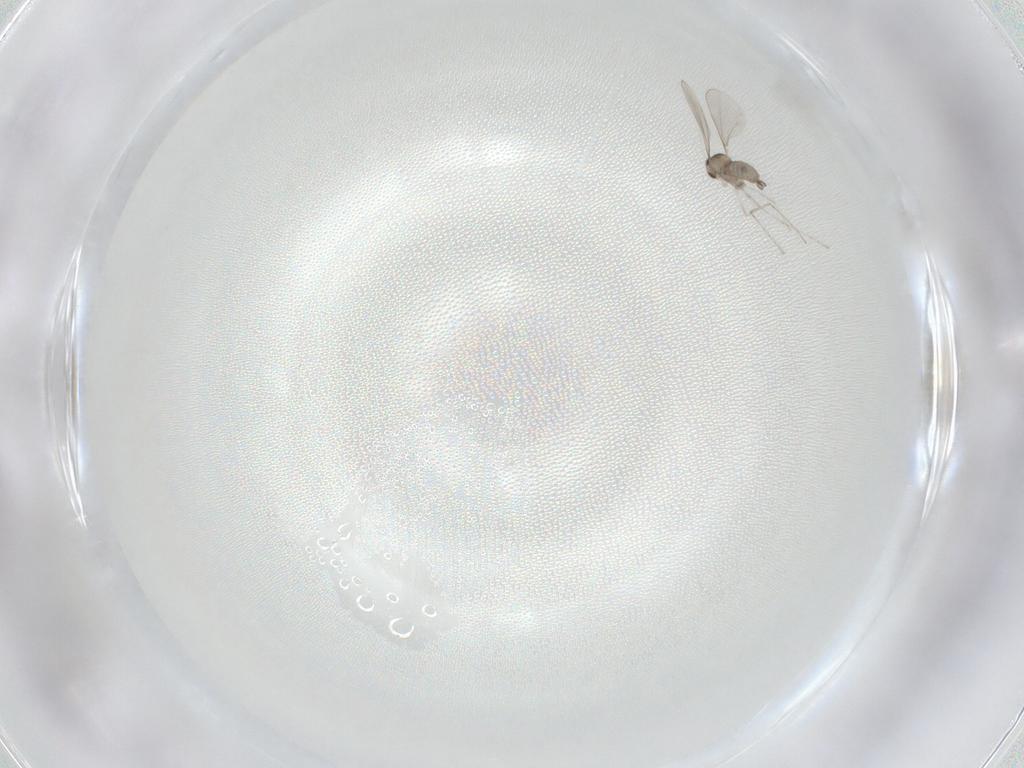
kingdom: Animalia
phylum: Arthropoda
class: Insecta
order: Diptera
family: Cecidomyiidae
